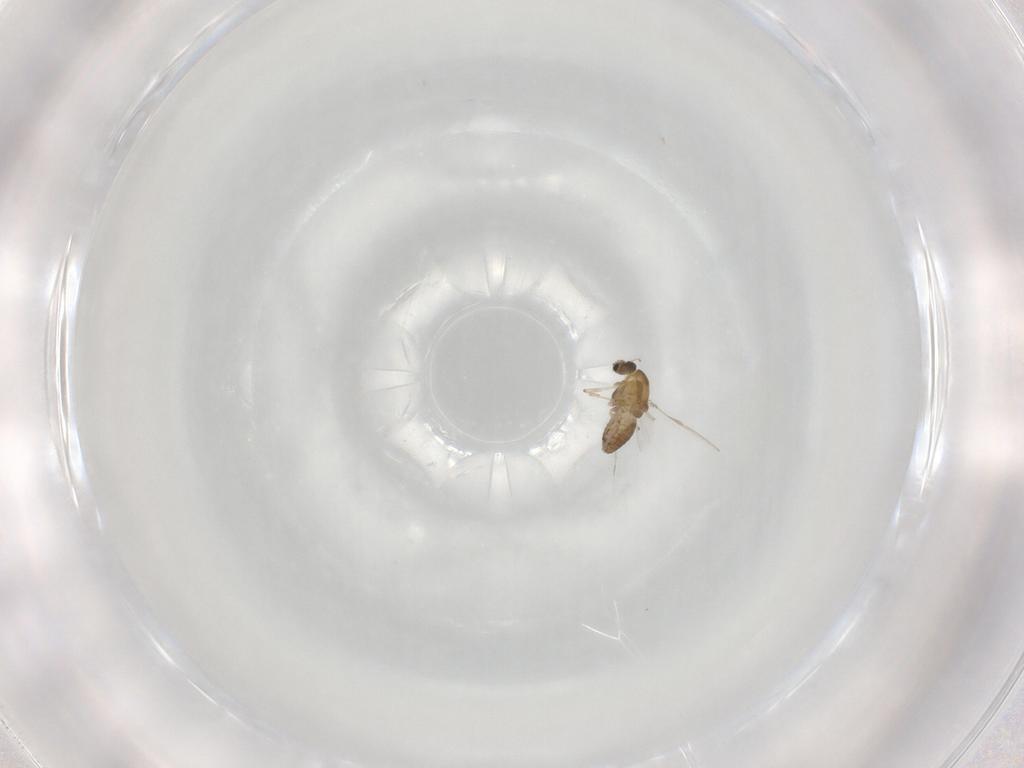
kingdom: Animalia
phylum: Arthropoda
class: Insecta
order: Diptera
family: Chironomidae
